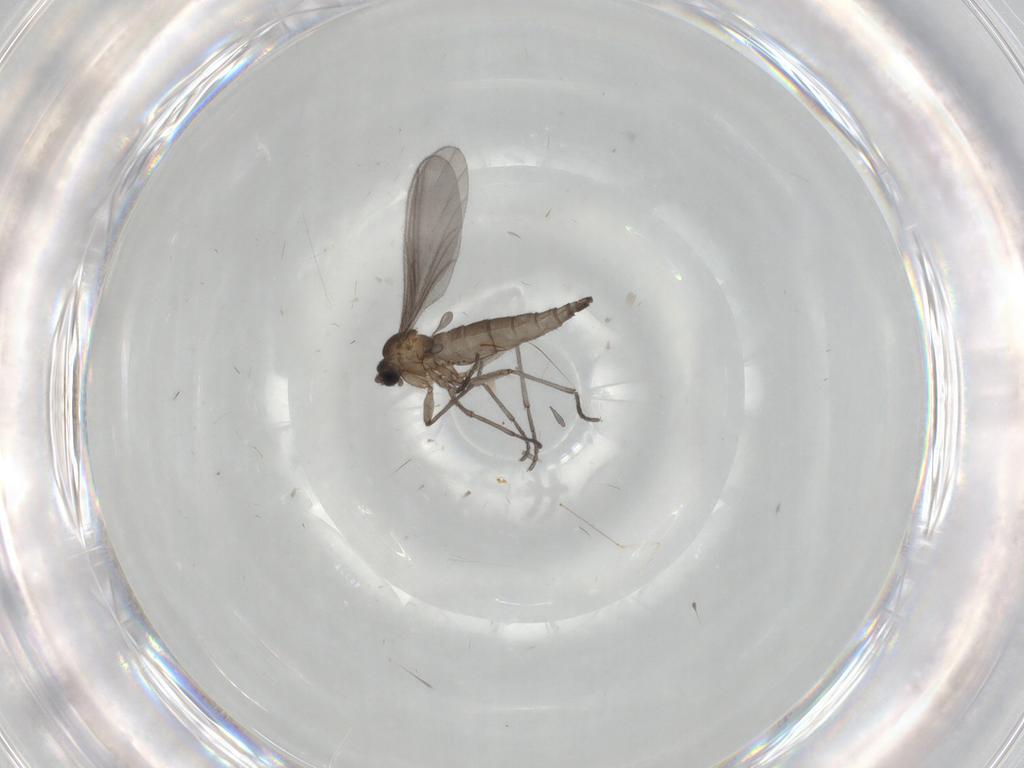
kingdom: Animalia
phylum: Arthropoda
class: Insecta
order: Diptera
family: Sciaridae
